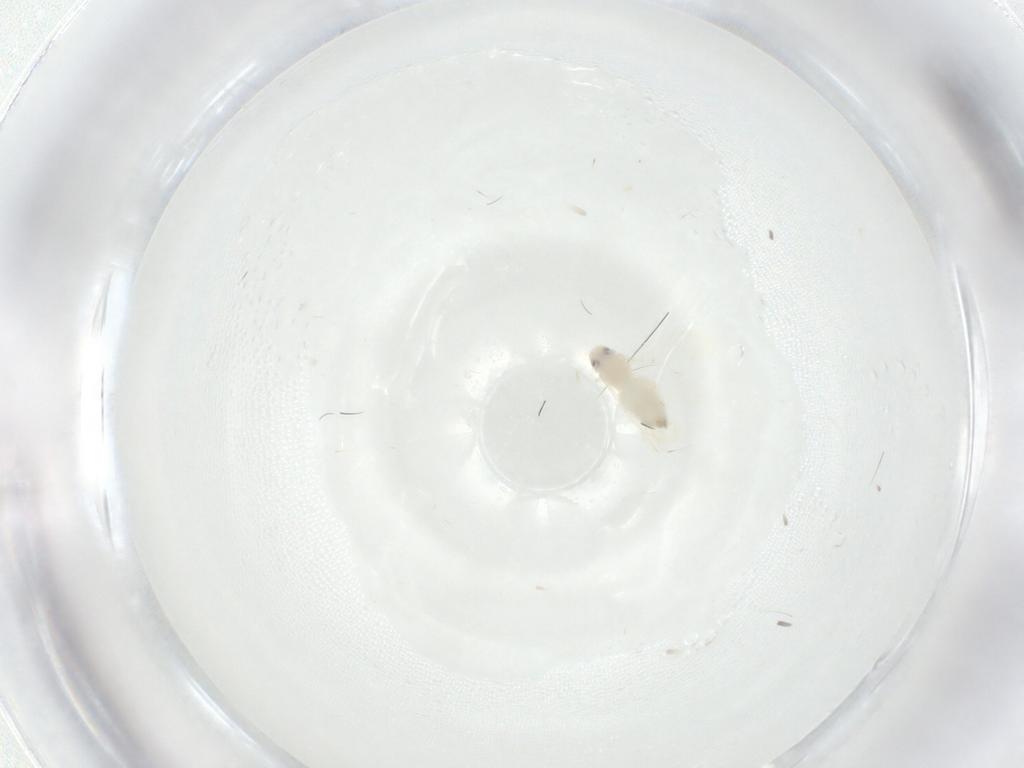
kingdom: Animalia
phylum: Arthropoda
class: Insecta
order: Hemiptera
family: Aleyrodidae
